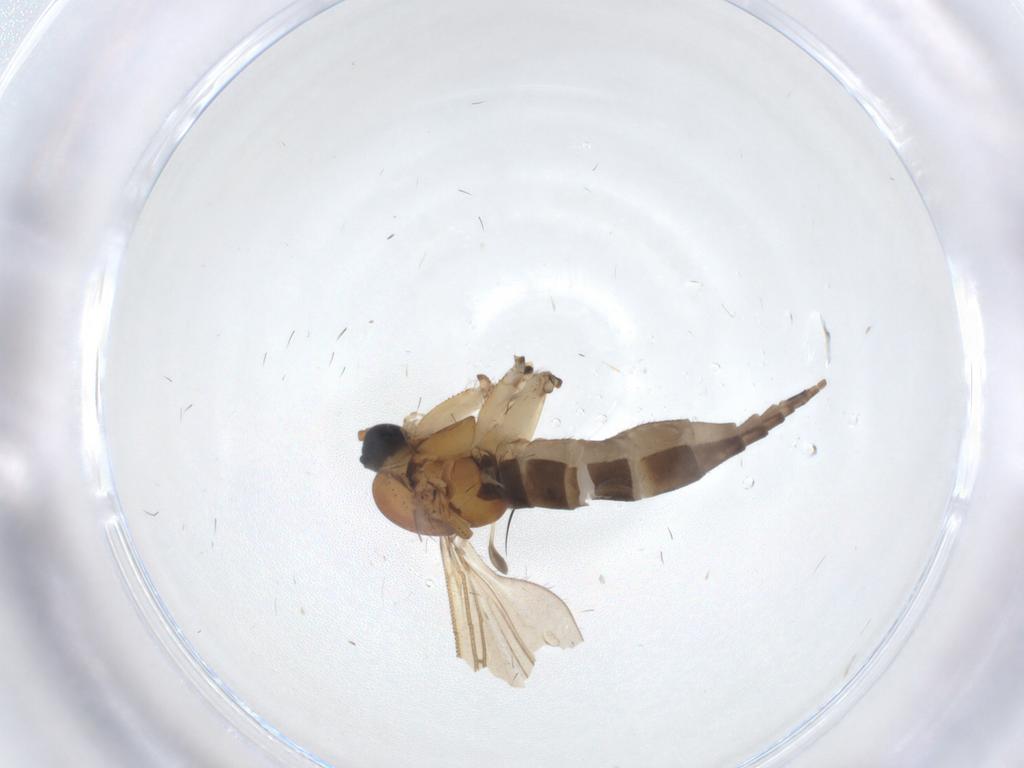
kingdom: Animalia
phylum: Arthropoda
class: Insecta
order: Diptera
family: Sciaridae
